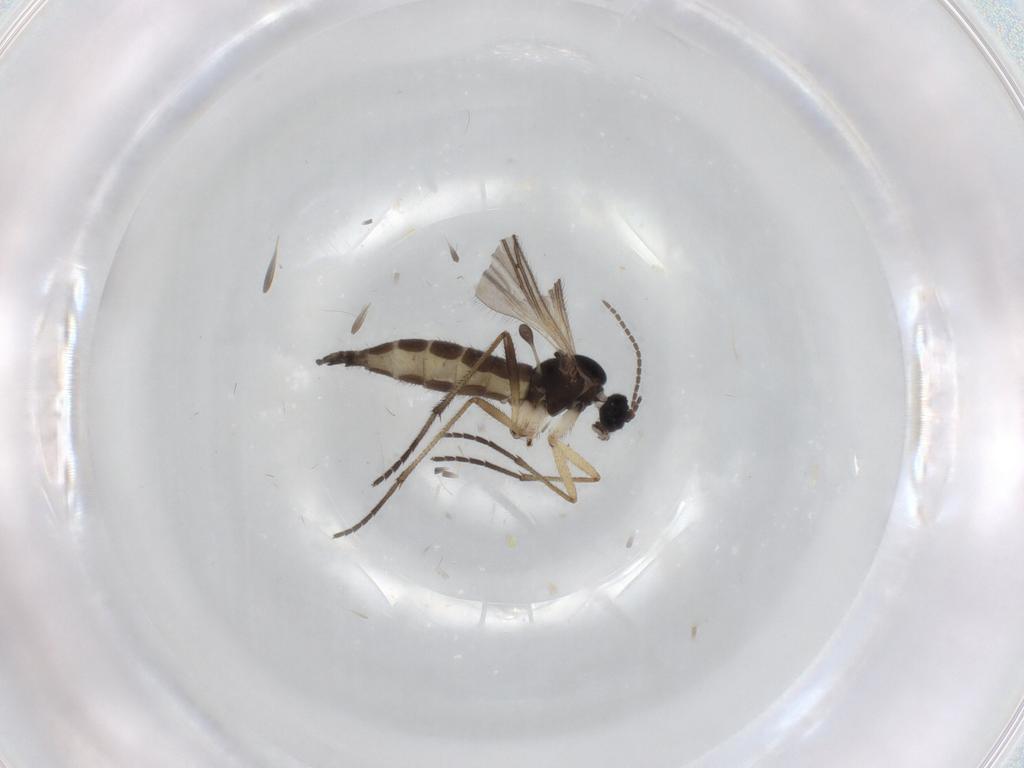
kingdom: Animalia
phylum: Arthropoda
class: Insecta
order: Diptera
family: Sciaridae
